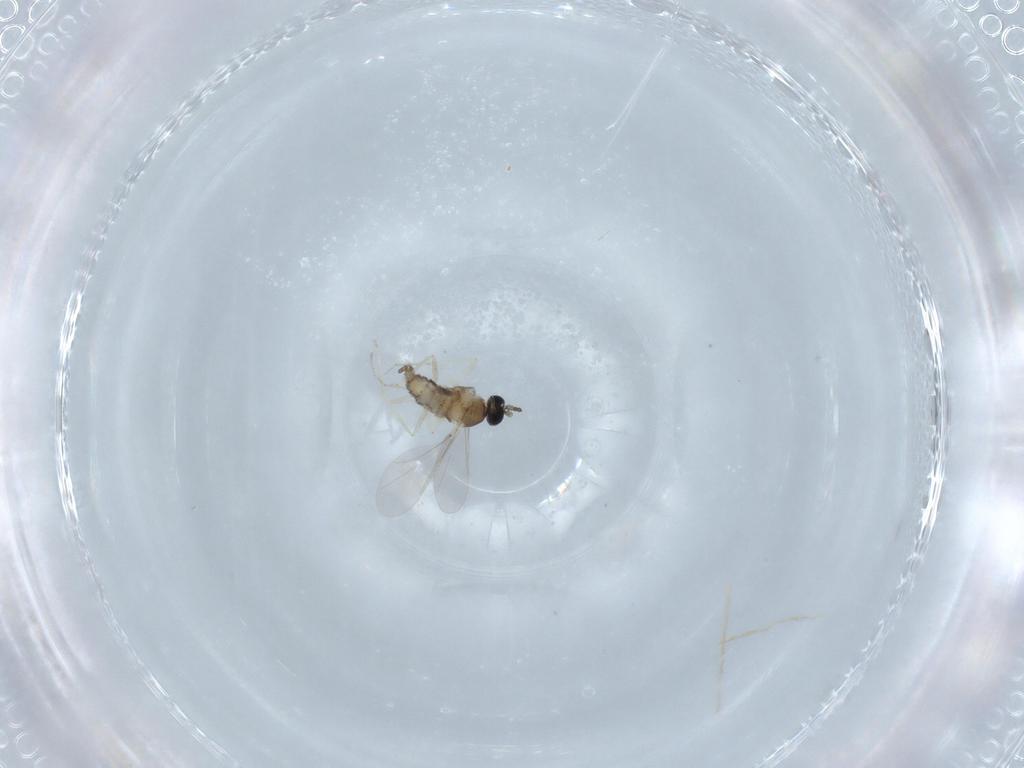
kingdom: Animalia
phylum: Arthropoda
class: Insecta
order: Diptera
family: Cecidomyiidae
